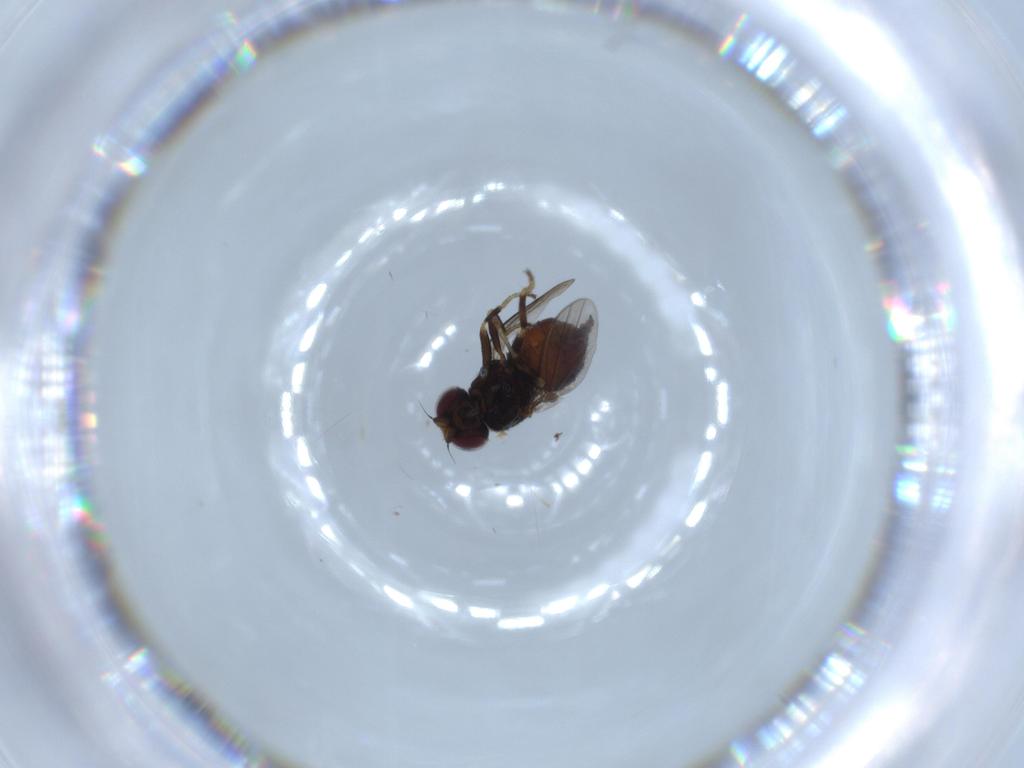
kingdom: Animalia
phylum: Arthropoda
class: Insecta
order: Diptera
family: Chloropidae
